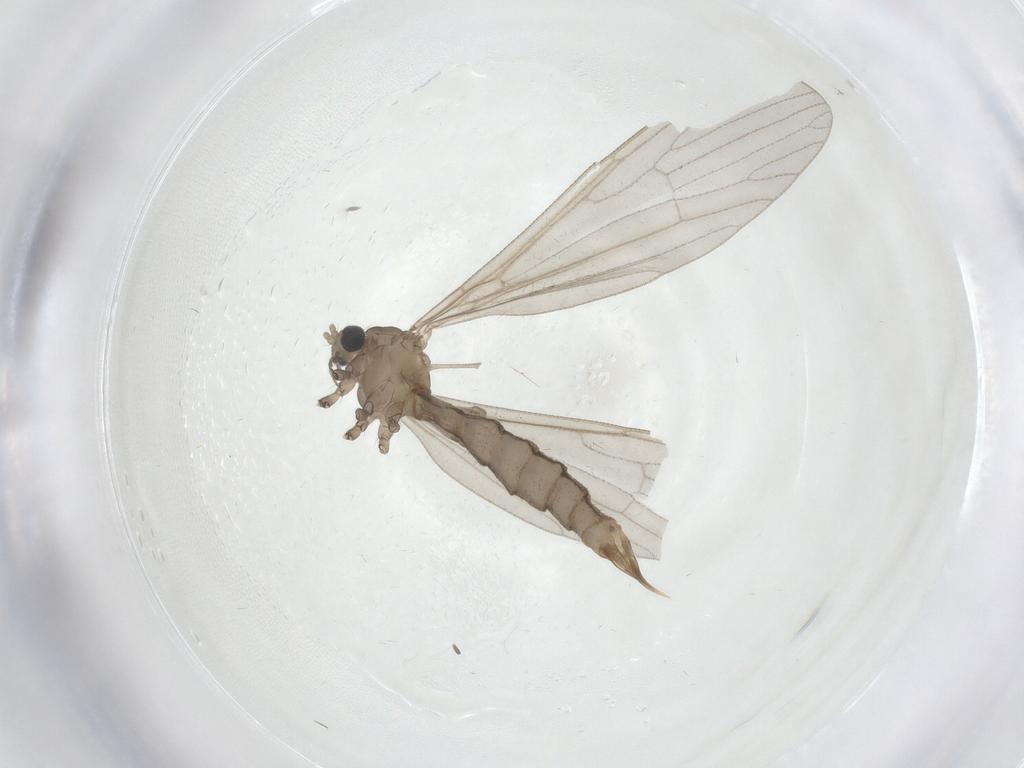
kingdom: Animalia
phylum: Arthropoda
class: Insecta
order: Diptera
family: Limoniidae
